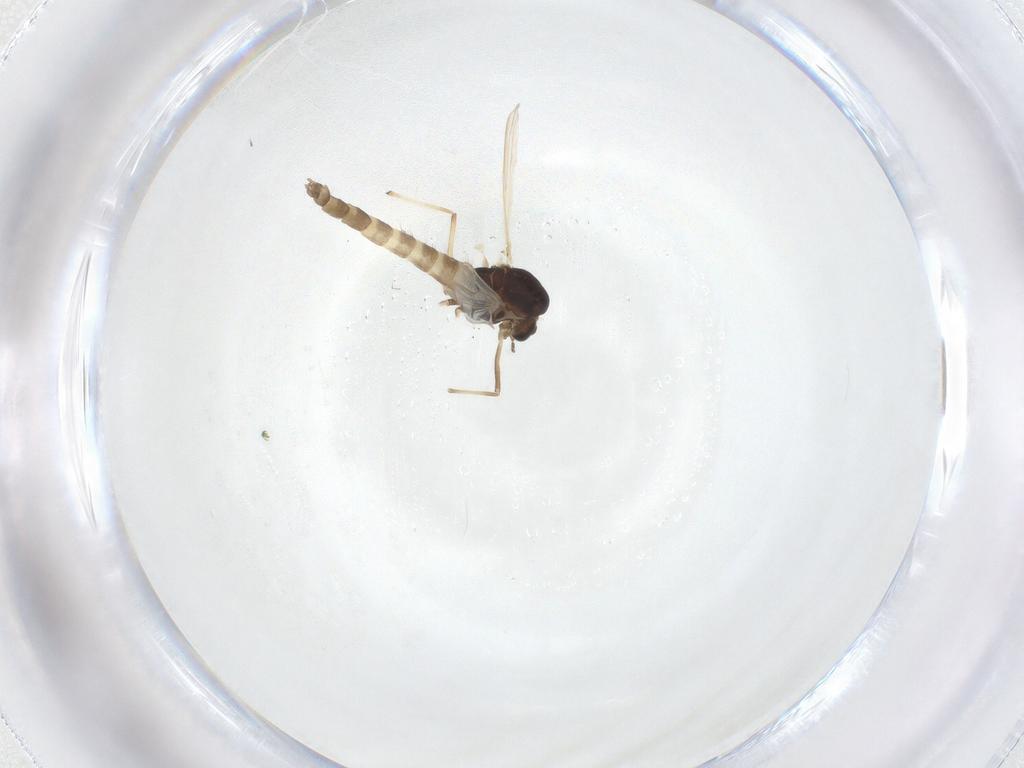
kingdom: Animalia
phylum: Arthropoda
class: Insecta
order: Diptera
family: Chironomidae
